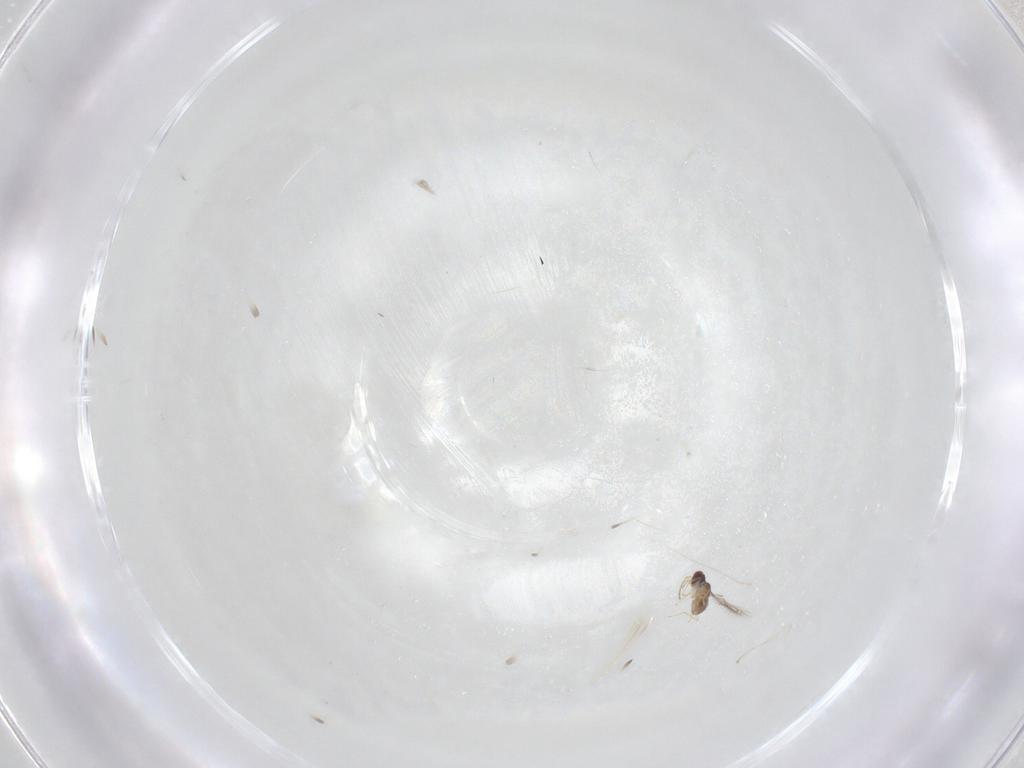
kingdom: Animalia
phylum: Arthropoda
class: Insecta
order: Diptera
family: Cecidomyiidae
